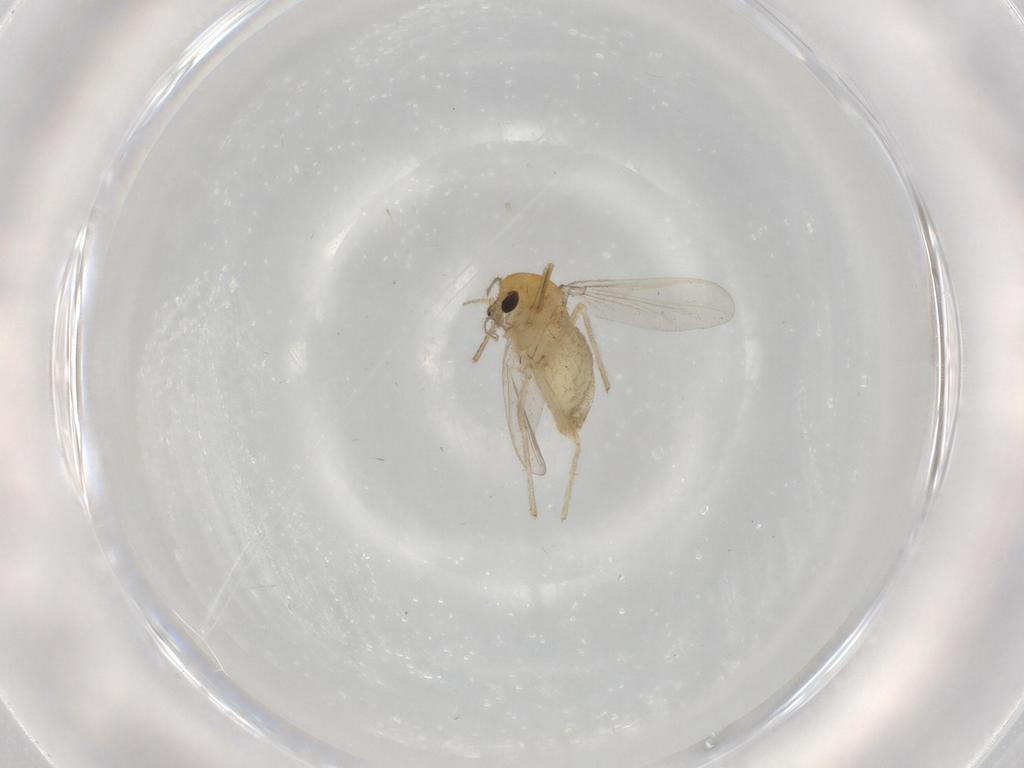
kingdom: Animalia
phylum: Arthropoda
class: Insecta
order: Diptera
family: Chironomidae
